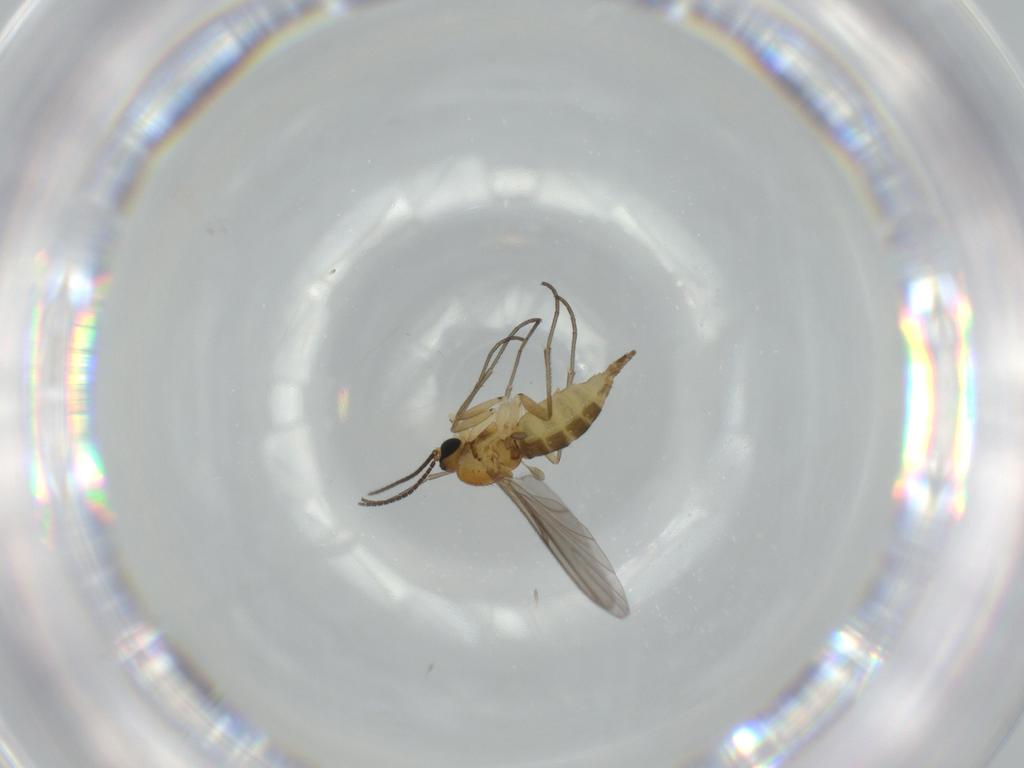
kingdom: Animalia
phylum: Arthropoda
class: Insecta
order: Diptera
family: Sciaridae
